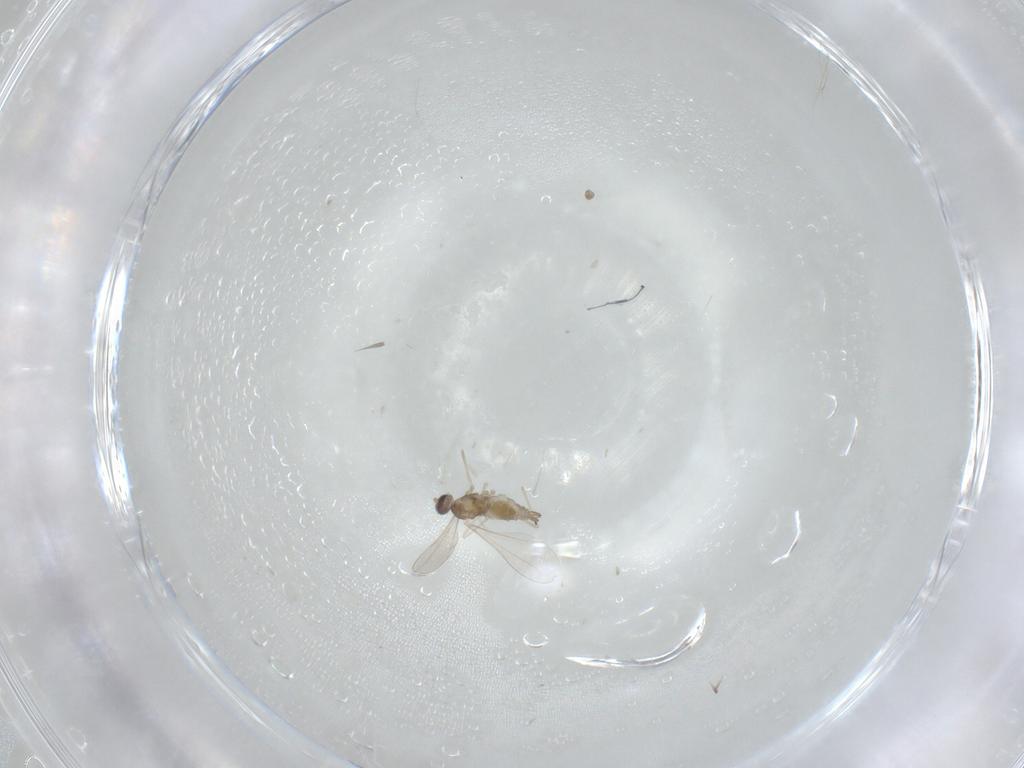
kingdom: Animalia
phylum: Arthropoda
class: Insecta
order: Diptera
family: Cecidomyiidae
